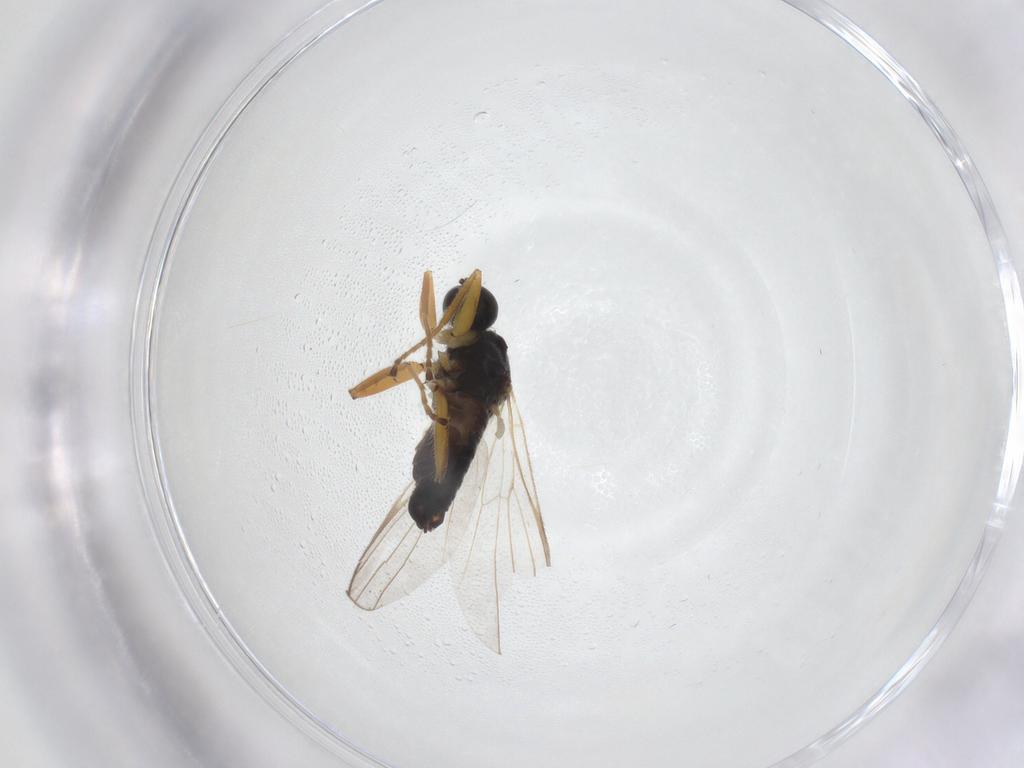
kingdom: Animalia
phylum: Arthropoda
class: Insecta
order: Diptera
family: Hybotidae
